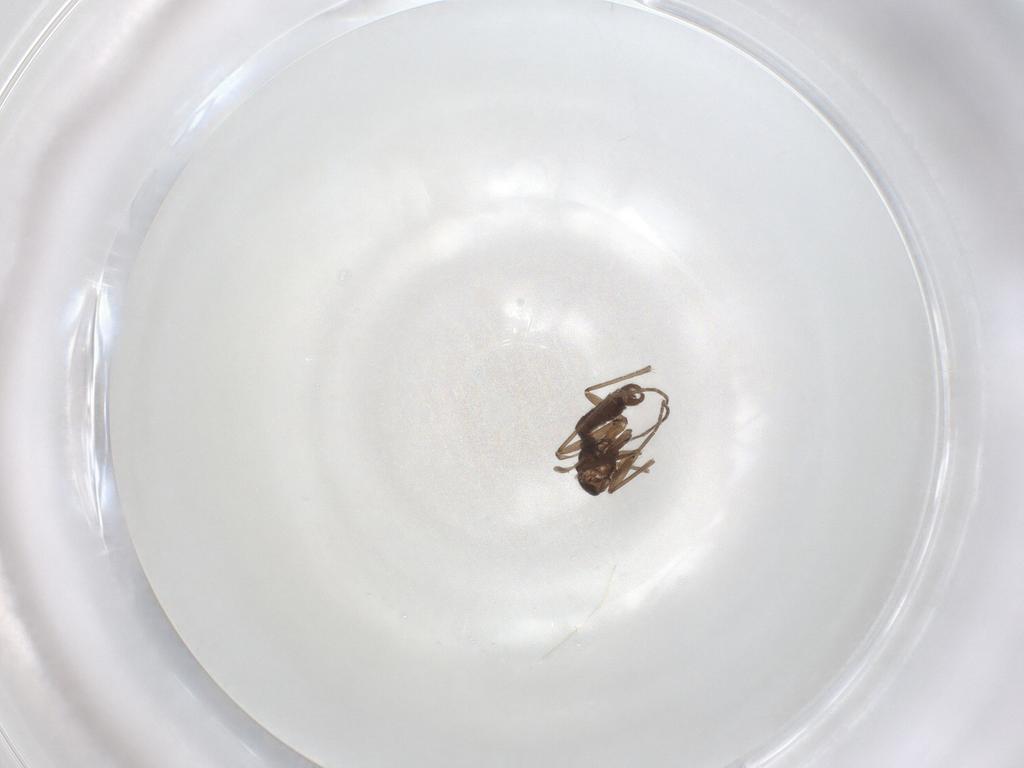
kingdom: Animalia
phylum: Arthropoda
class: Insecta
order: Diptera
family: Sciaridae
